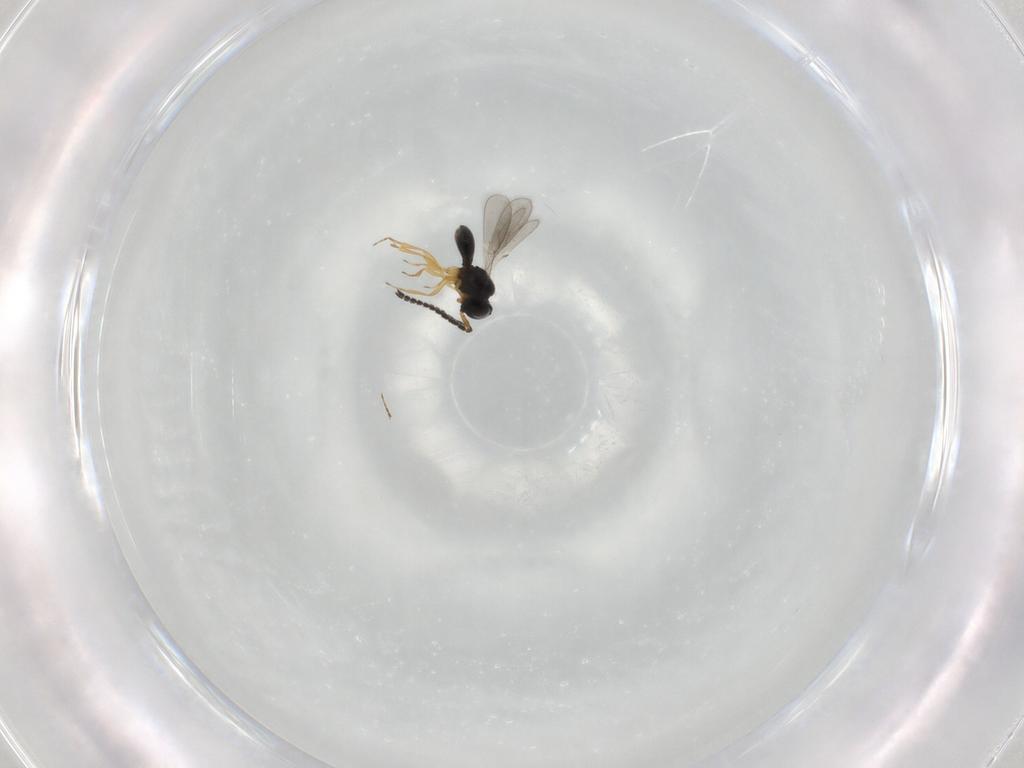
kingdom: Animalia
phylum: Arthropoda
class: Insecta
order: Hymenoptera
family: Scelionidae
